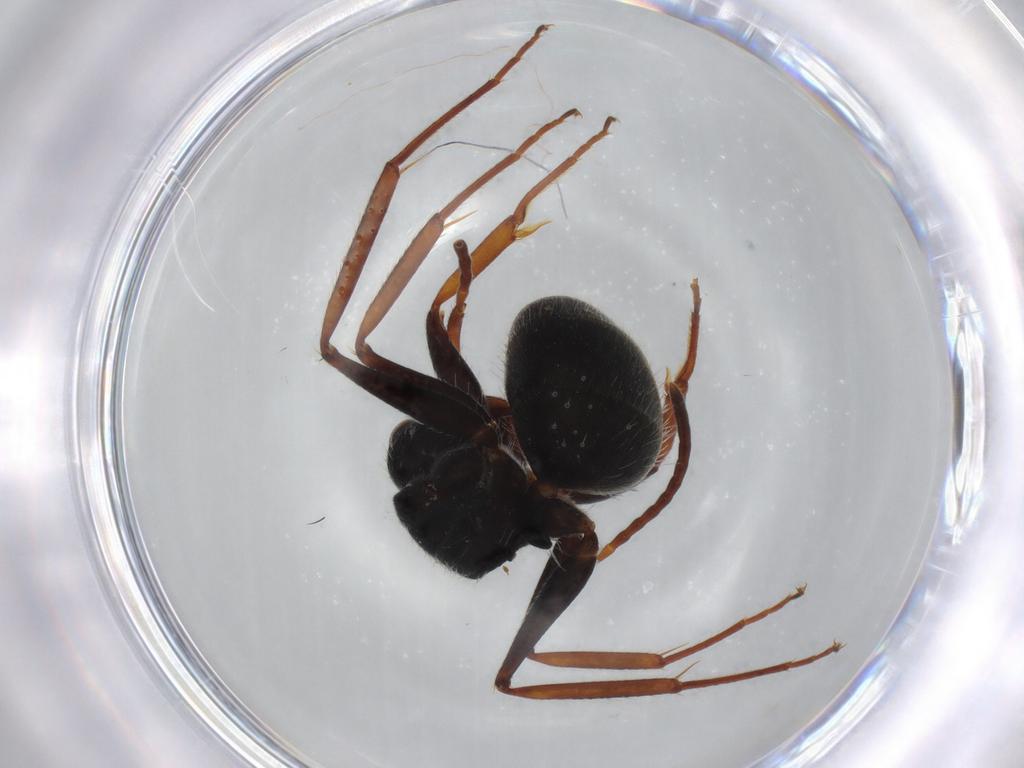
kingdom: Animalia
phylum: Arthropoda
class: Insecta
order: Hymenoptera
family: Formicidae
